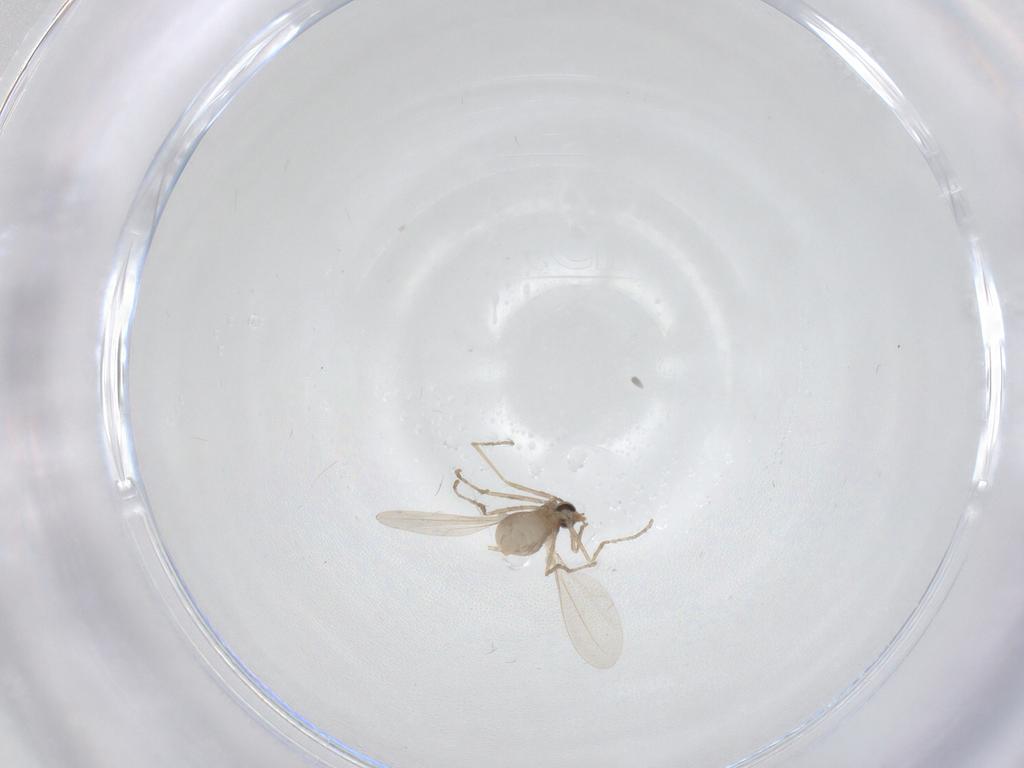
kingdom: Animalia
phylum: Arthropoda
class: Insecta
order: Diptera
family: Cecidomyiidae
